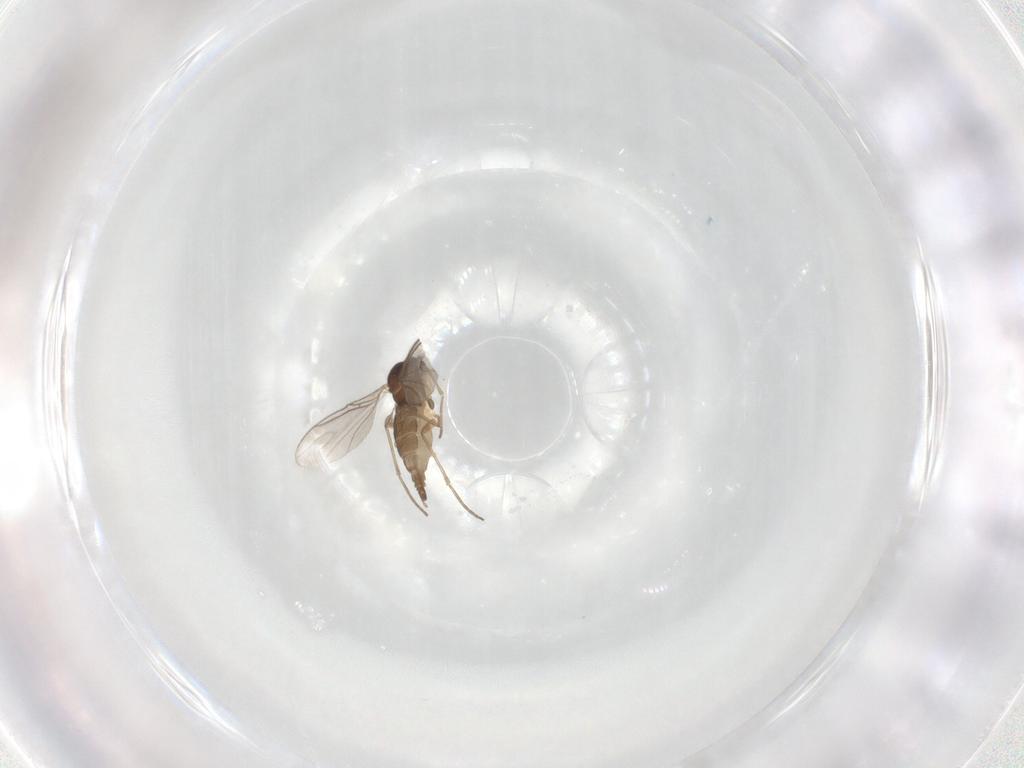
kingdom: Animalia
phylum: Arthropoda
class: Insecta
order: Diptera
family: Sciaridae
